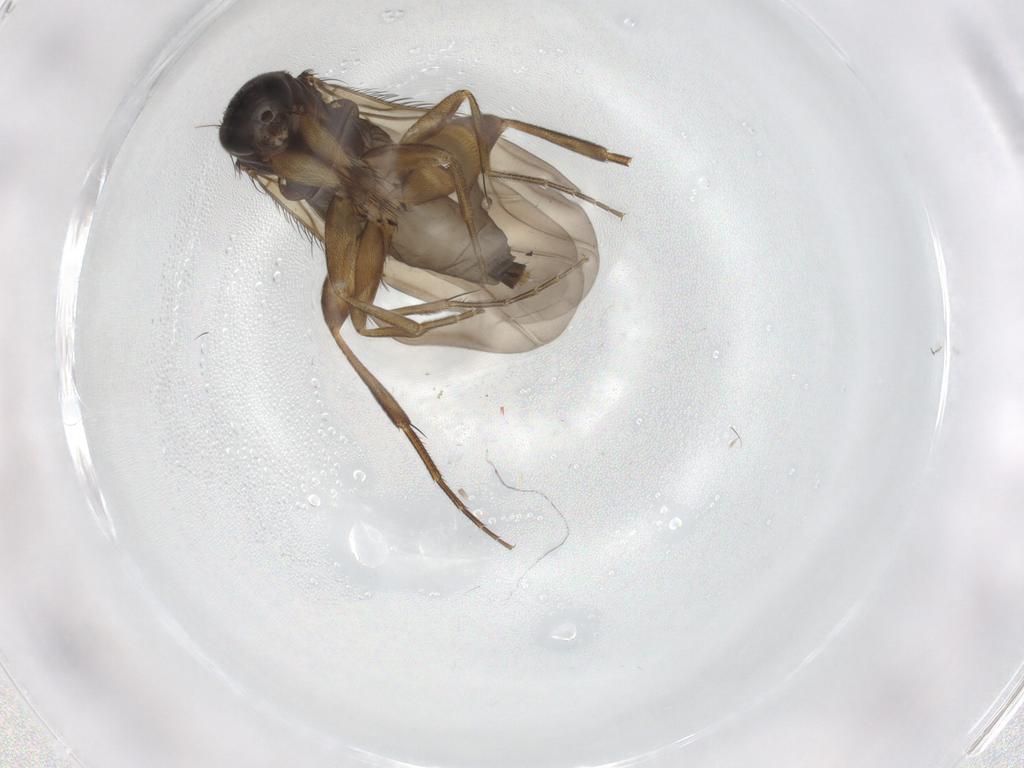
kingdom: Animalia
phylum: Arthropoda
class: Insecta
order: Diptera
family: Phoridae
